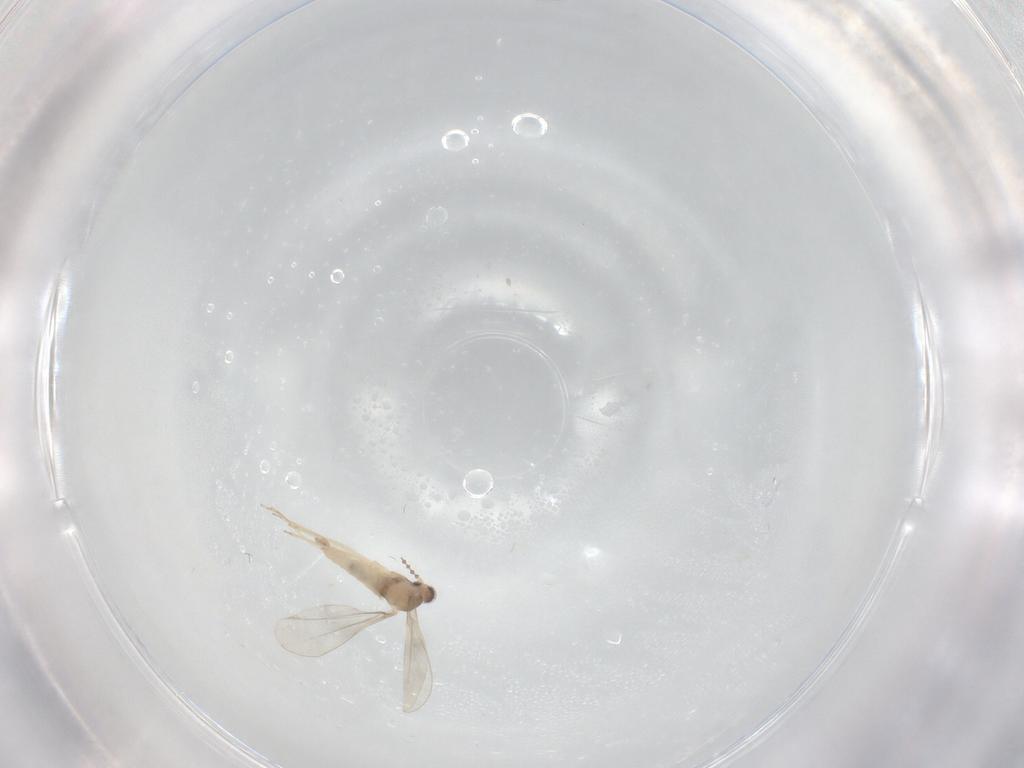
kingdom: Animalia
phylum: Arthropoda
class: Insecta
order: Diptera
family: Cecidomyiidae
